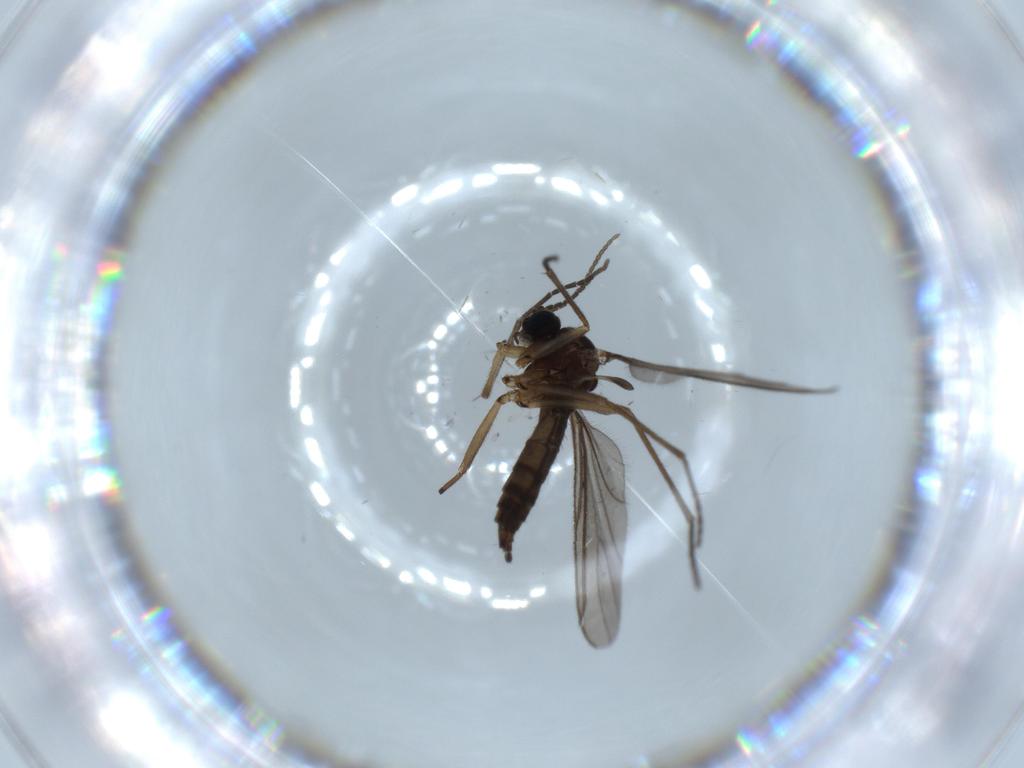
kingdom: Animalia
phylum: Arthropoda
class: Insecta
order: Diptera
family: Sciaridae
